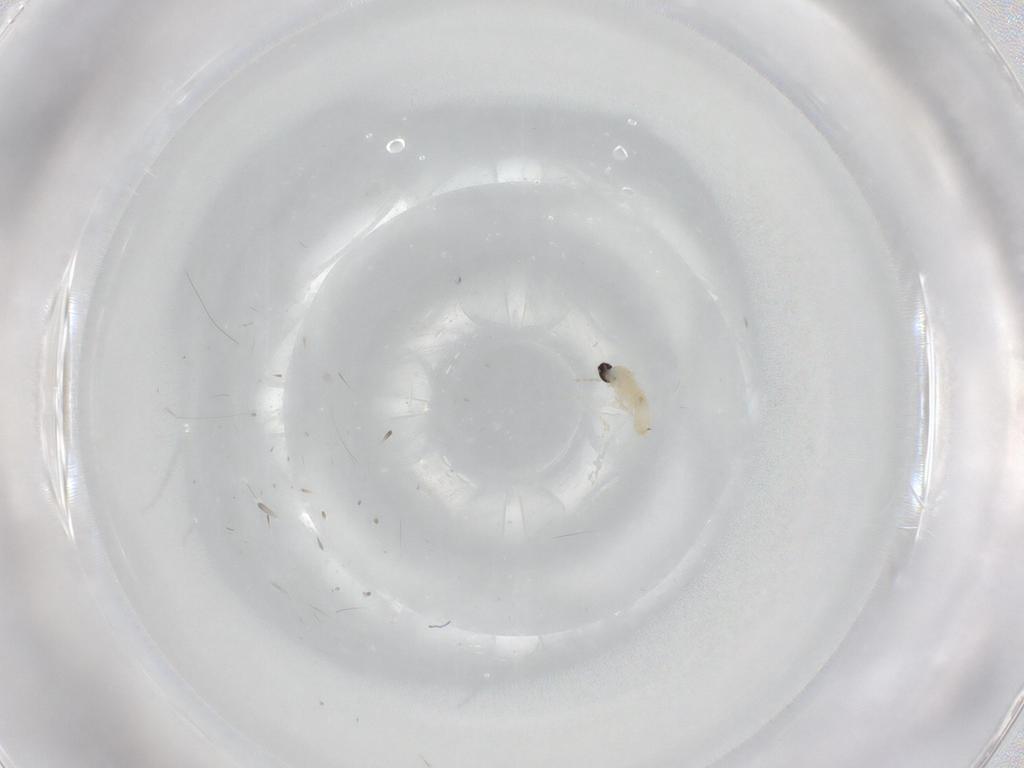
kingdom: Animalia
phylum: Arthropoda
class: Insecta
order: Diptera
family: Cecidomyiidae
